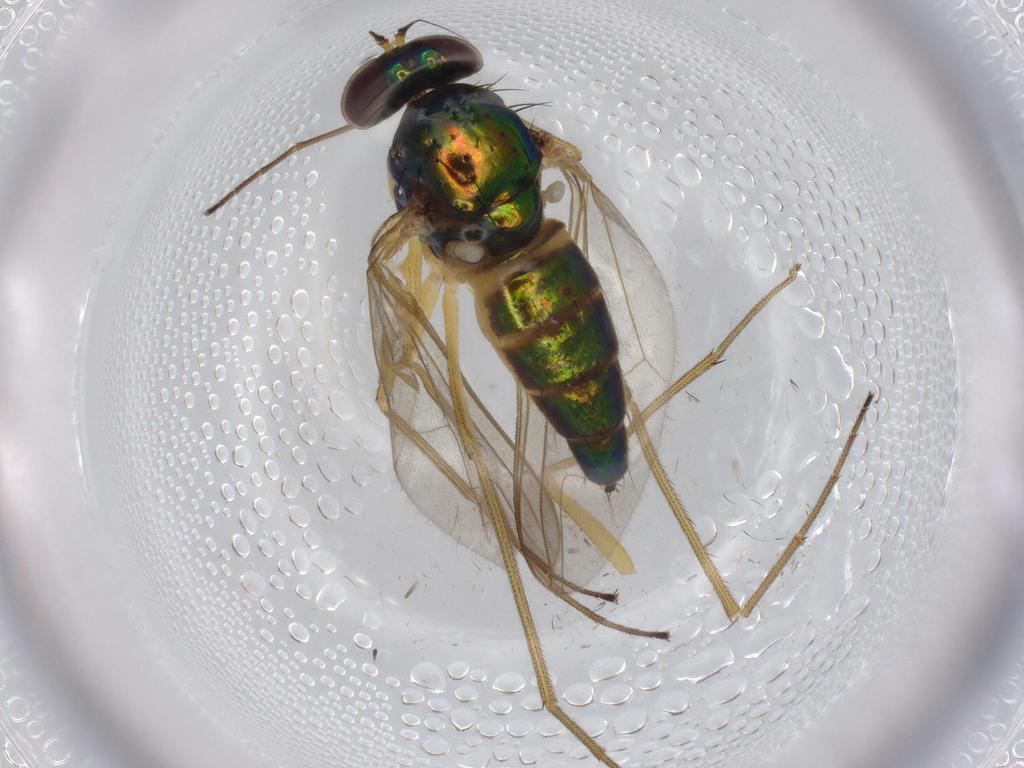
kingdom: Animalia
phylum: Arthropoda
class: Insecta
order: Diptera
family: Dolichopodidae
